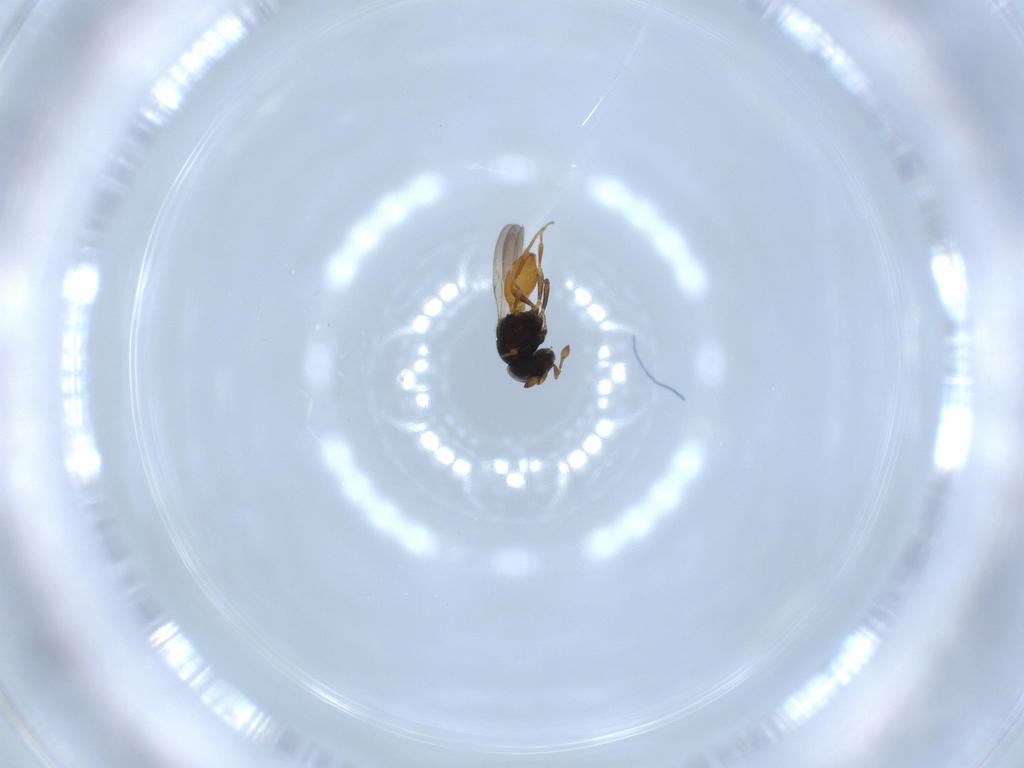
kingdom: Animalia
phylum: Arthropoda
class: Insecta
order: Hymenoptera
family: Scelionidae
